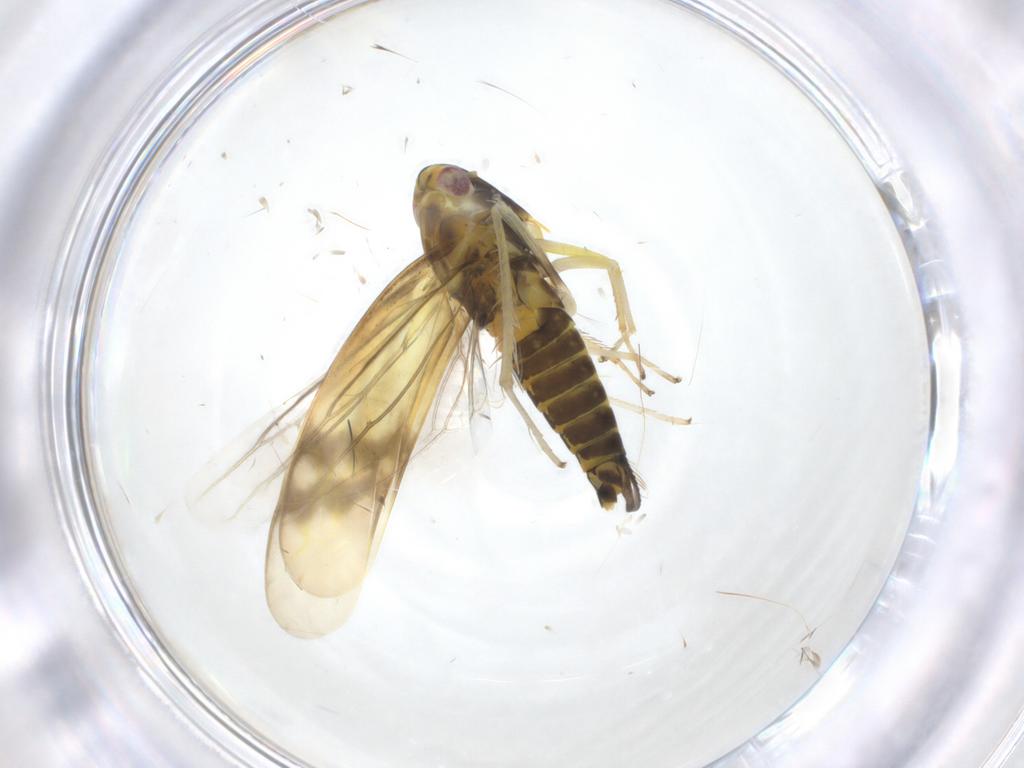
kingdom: Animalia
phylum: Arthropoda
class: Insecta
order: Hemiptera
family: Cicadellidae
